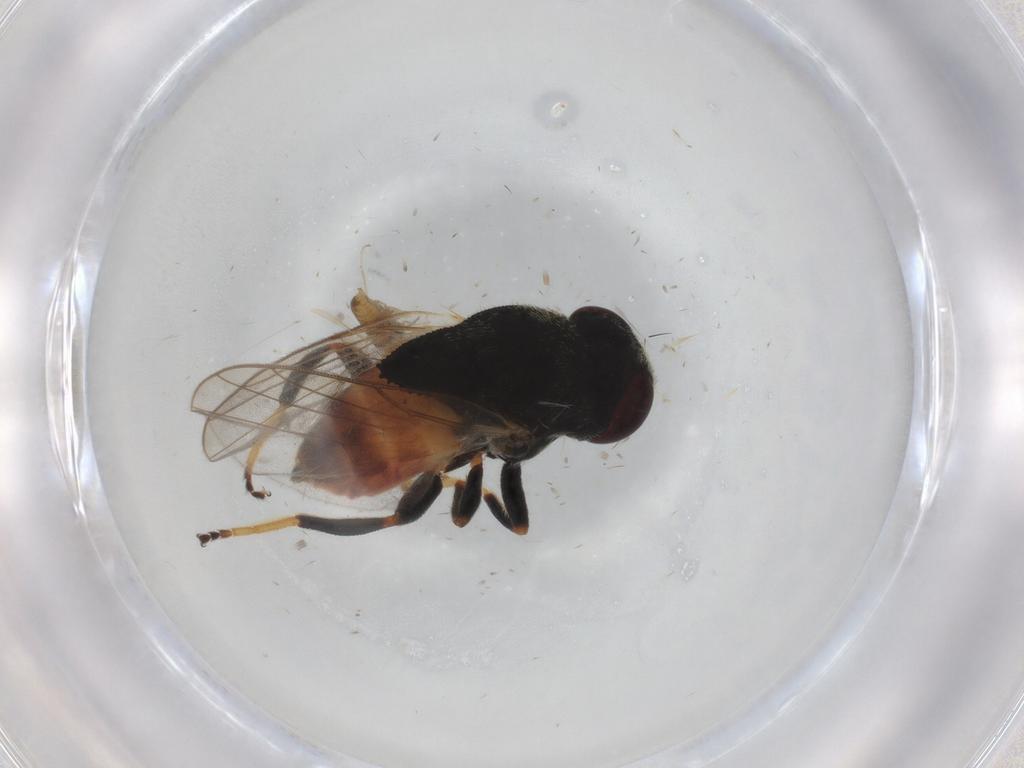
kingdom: Animalia
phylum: Arthropoda
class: Insecta
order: Diptera
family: Chloropidae
